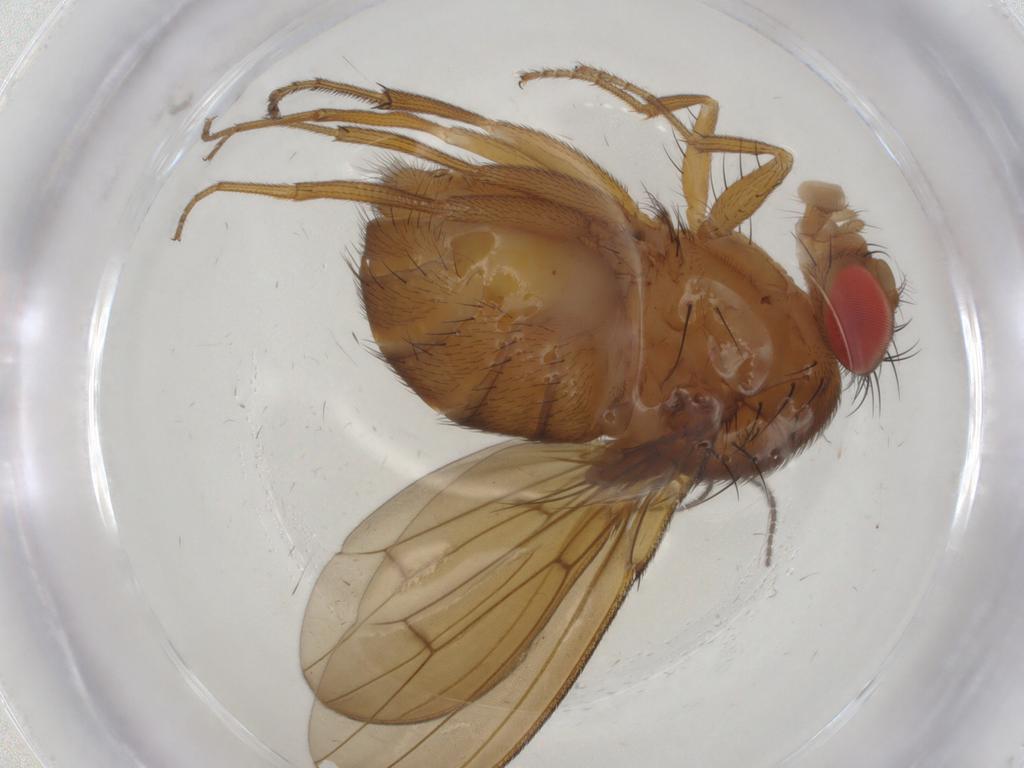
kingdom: Animalia
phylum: Arthropoda
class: Insecta
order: Diptera
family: Drosophilidae
